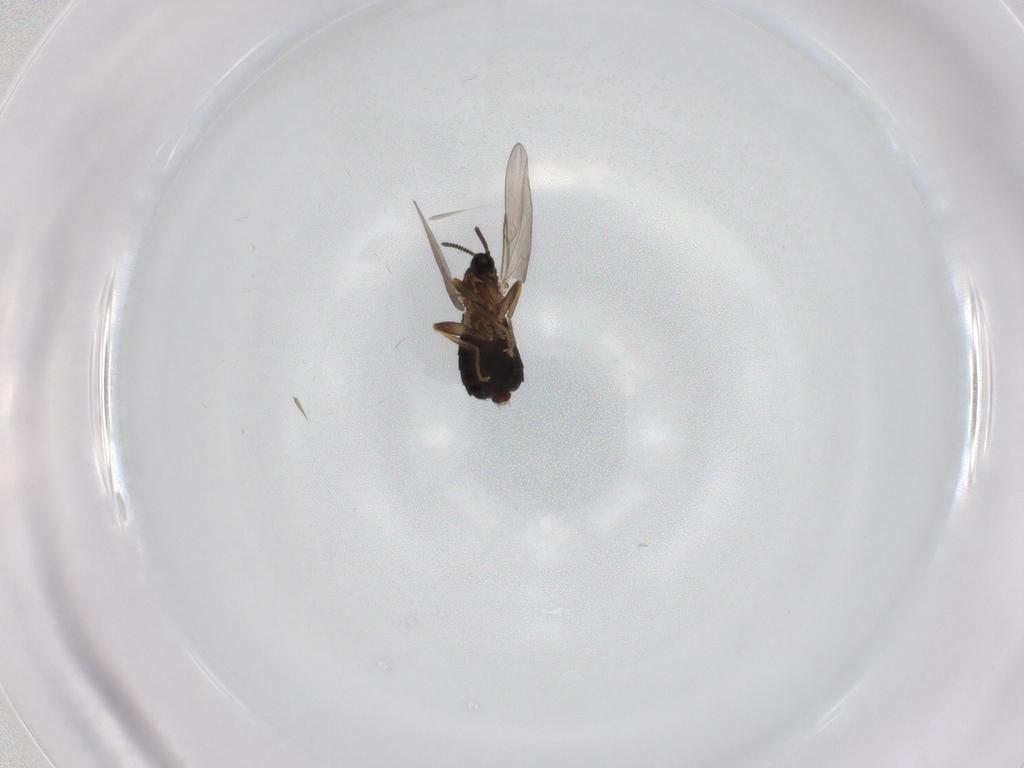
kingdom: Animalia
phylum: Arthropoda
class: Insecta
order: Diptera
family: Scatopsidae
